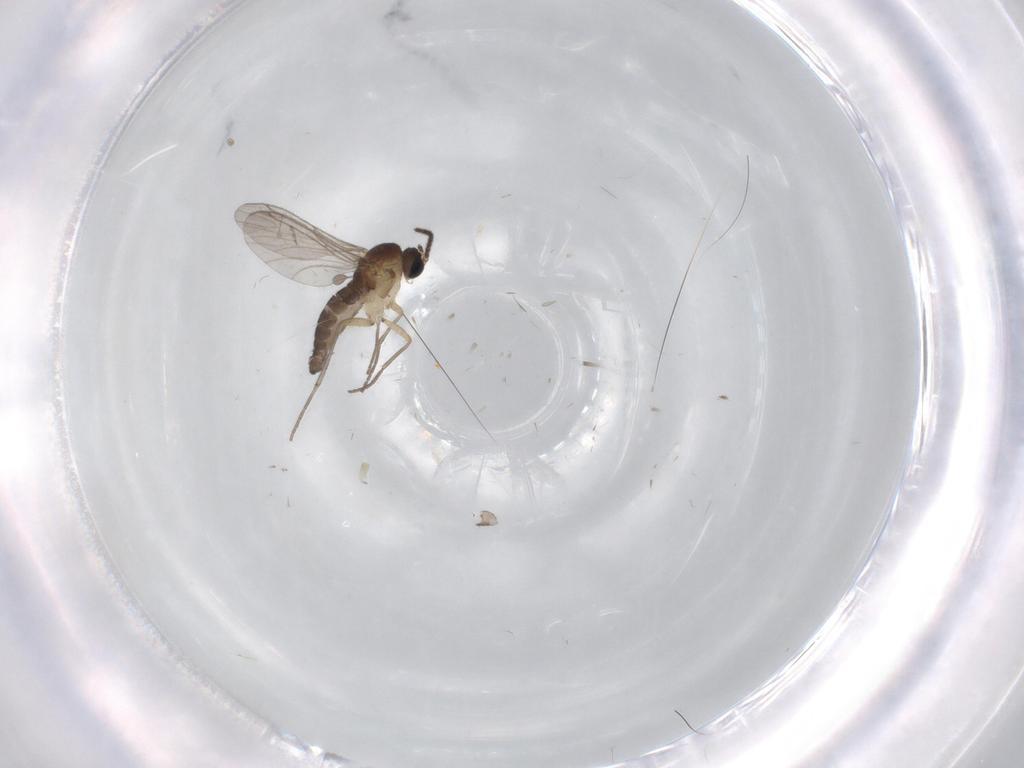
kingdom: Animalia
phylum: Arthropoda
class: Insecta
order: Diptera
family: Sciaridae
